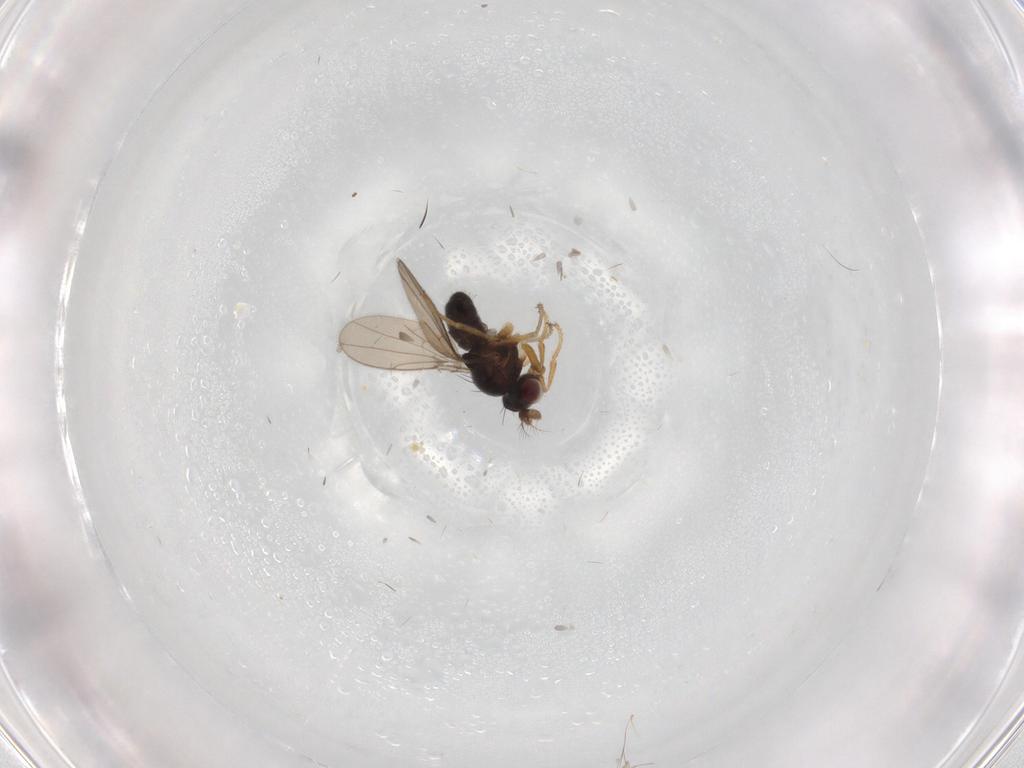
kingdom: Animalia
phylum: Arthropoda
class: Insecta
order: Diptera
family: Ephydridae
